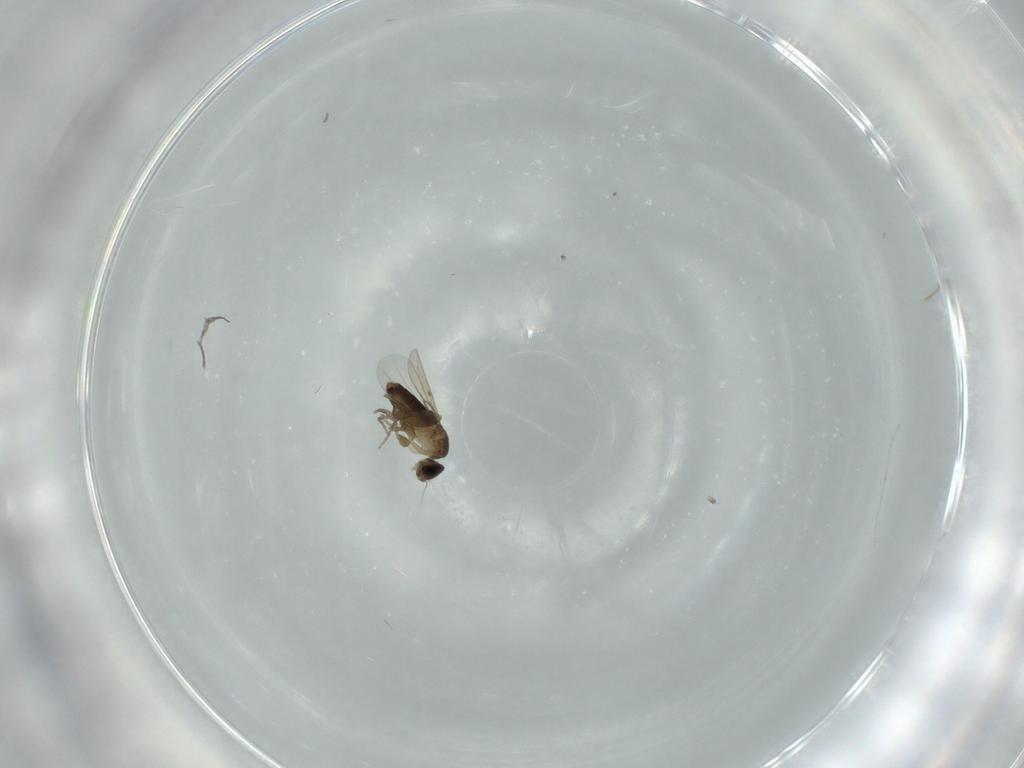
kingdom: Animalia
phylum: Arthropoda
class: Insecta
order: Diptera
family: Phoridae
